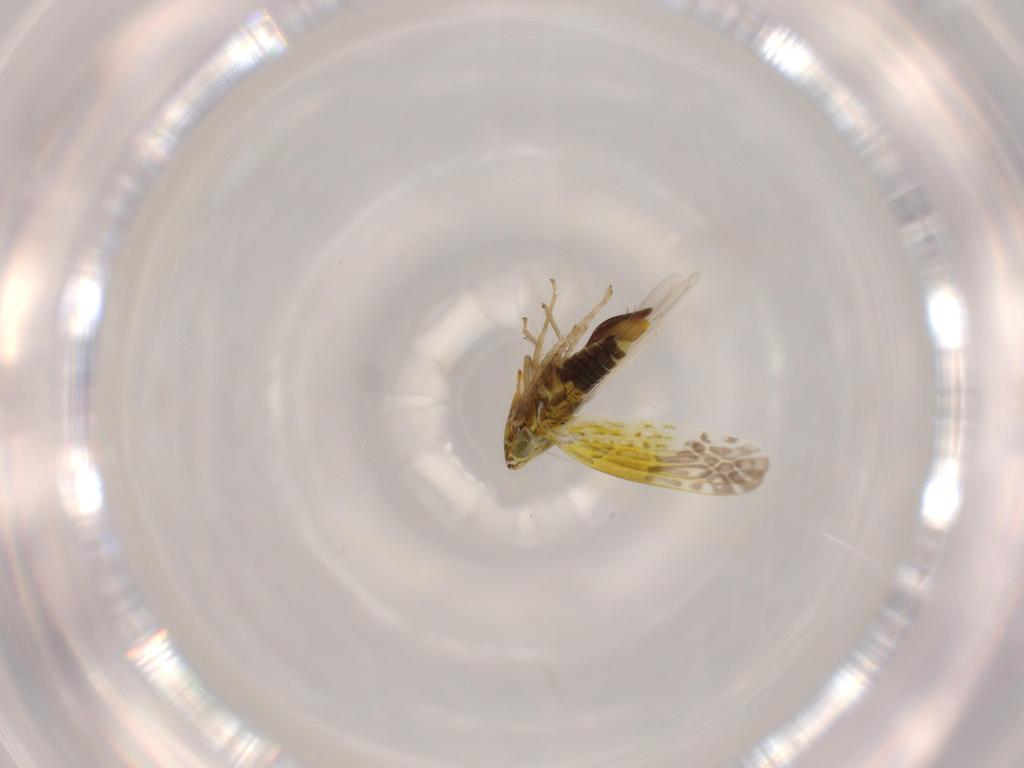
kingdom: Animalia
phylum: Arthropoda
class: Insecta
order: Hemiptera
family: Cicadellidae
